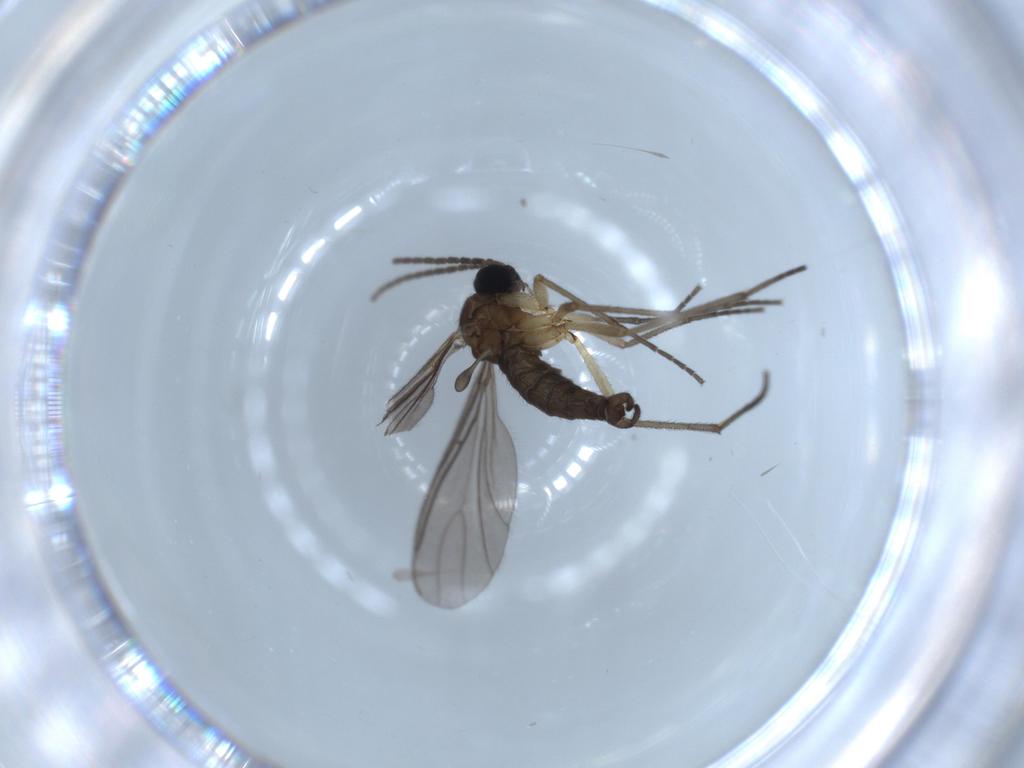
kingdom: Animalia
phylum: Arthropoda
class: Insecta
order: Diptera
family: Sciaridae
